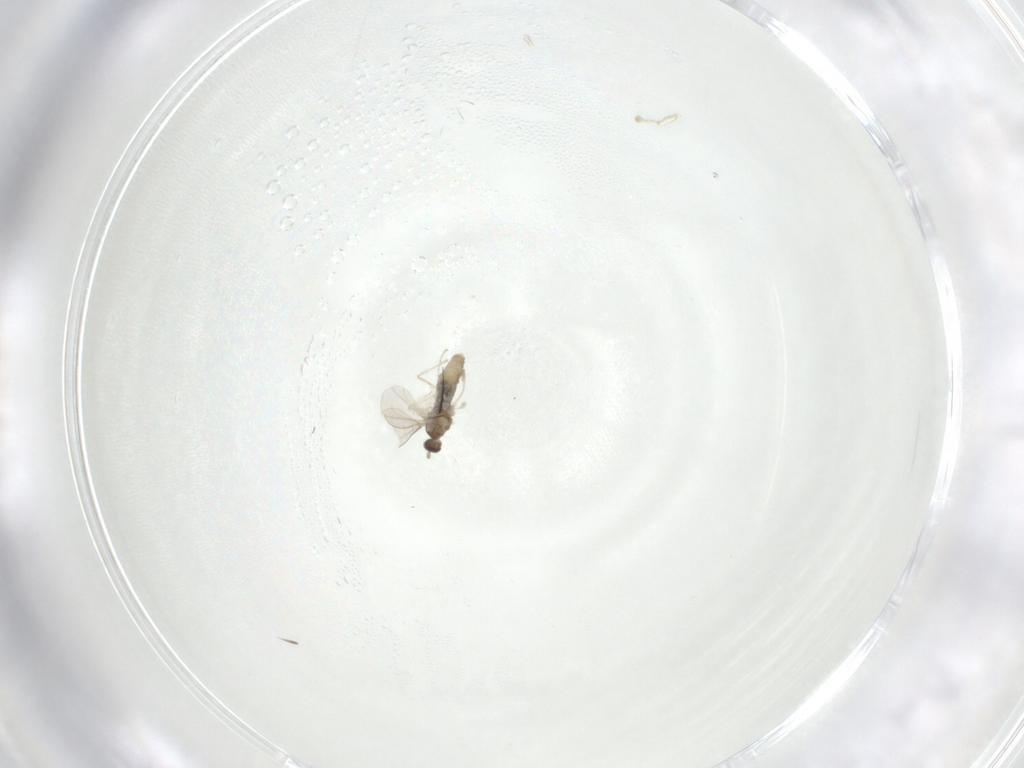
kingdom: Animalia
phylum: Arthropoda
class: Insecta
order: Diptera
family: Cecidomyiidae
